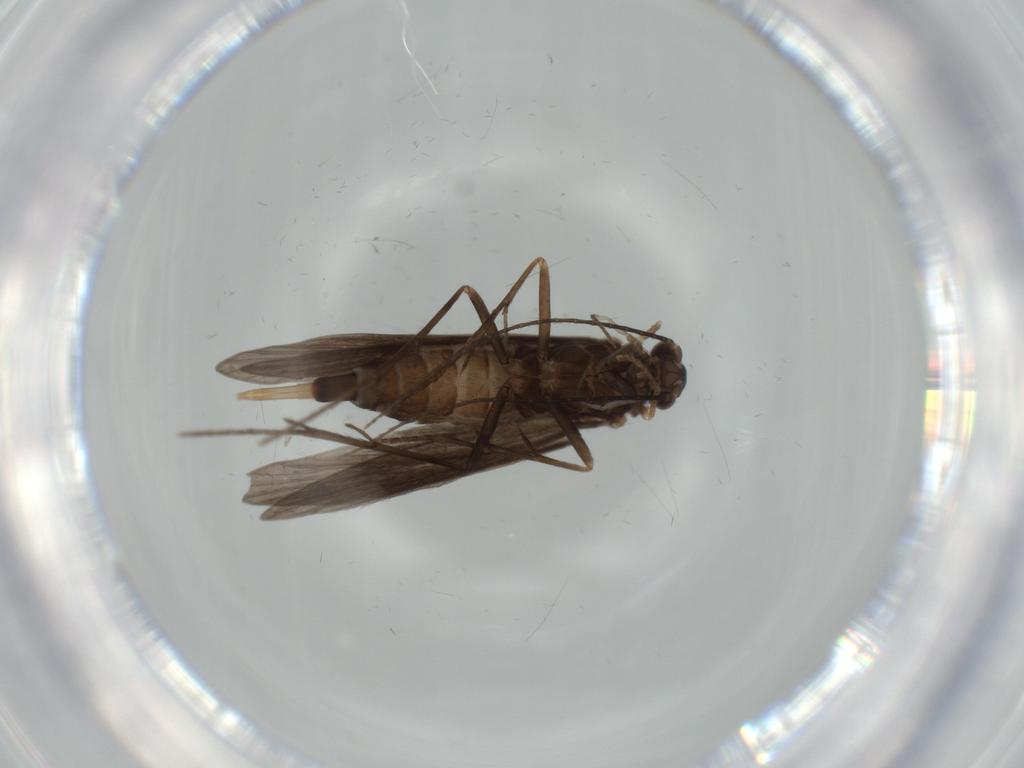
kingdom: Animalia
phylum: Arthropoda
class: Insecta
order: Trichoptera
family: Xiphocentronidae
